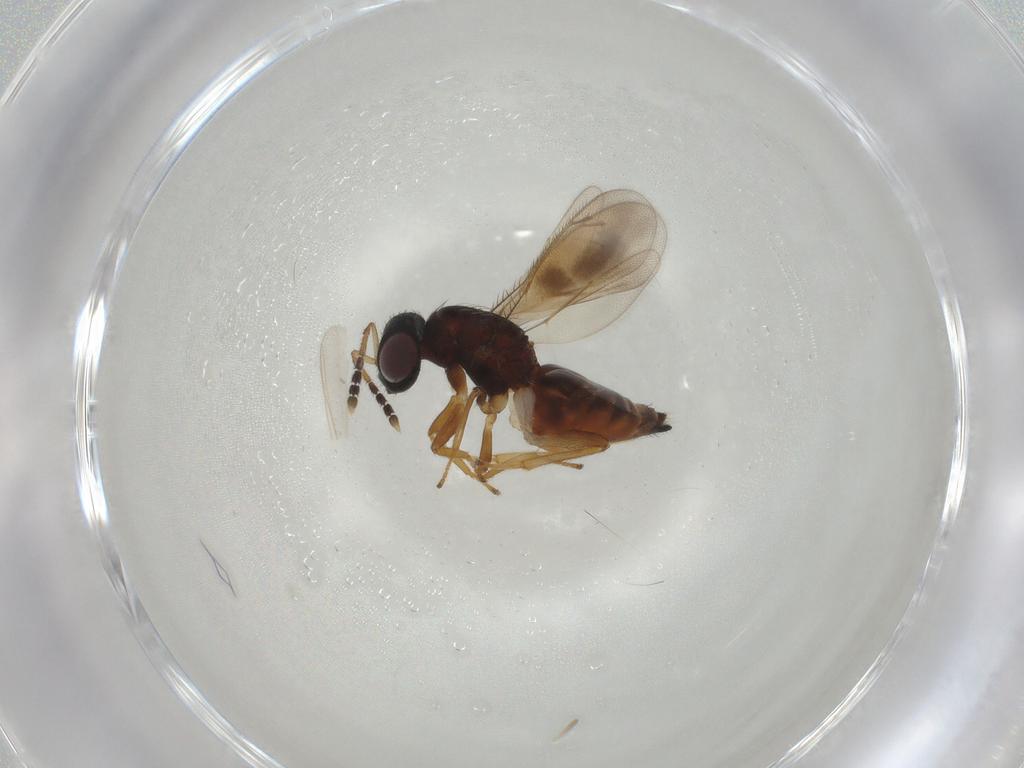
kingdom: Animalia
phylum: Arthropoda
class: Insecta
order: Hymenoptera
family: Eulophidae
